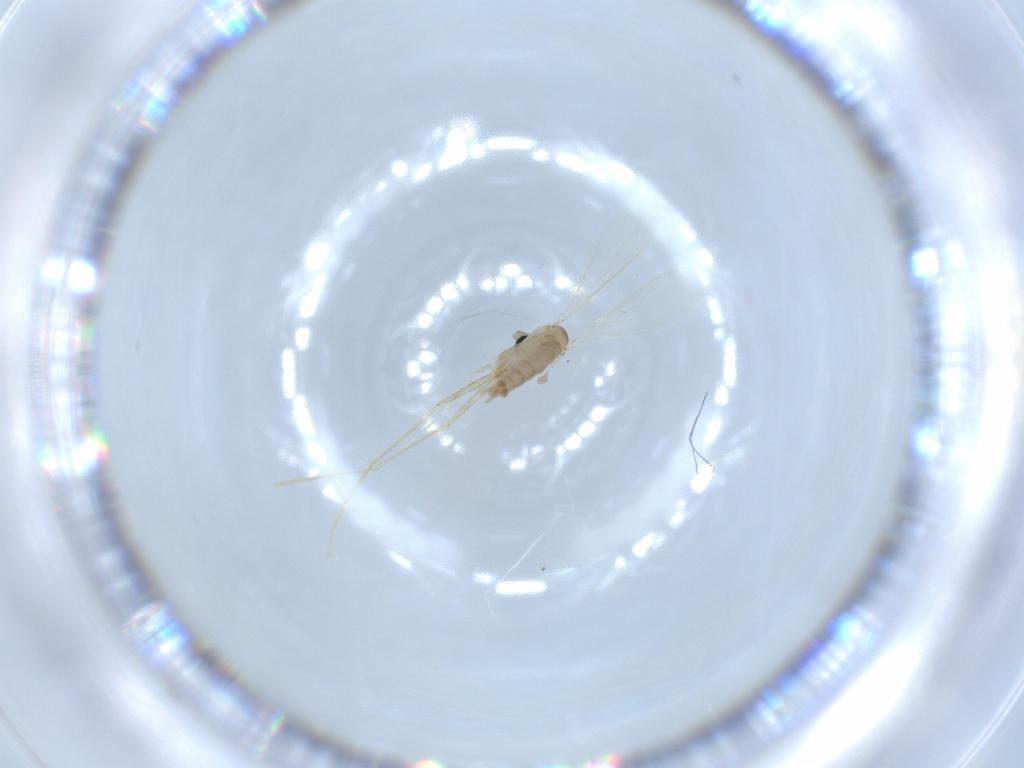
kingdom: Animalia
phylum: Arthropoda
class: Insecta
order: Diptera
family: Psychodidae
